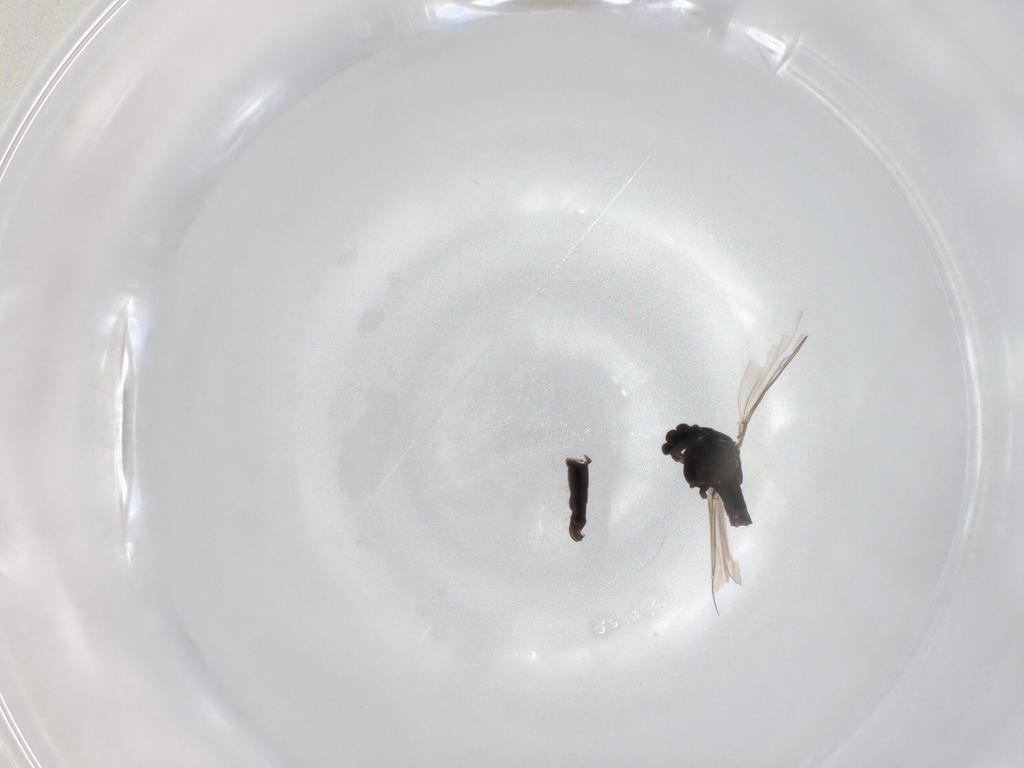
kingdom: Animalia
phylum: Arthropoda
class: Insecta
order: Diptera
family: Chironomidae
